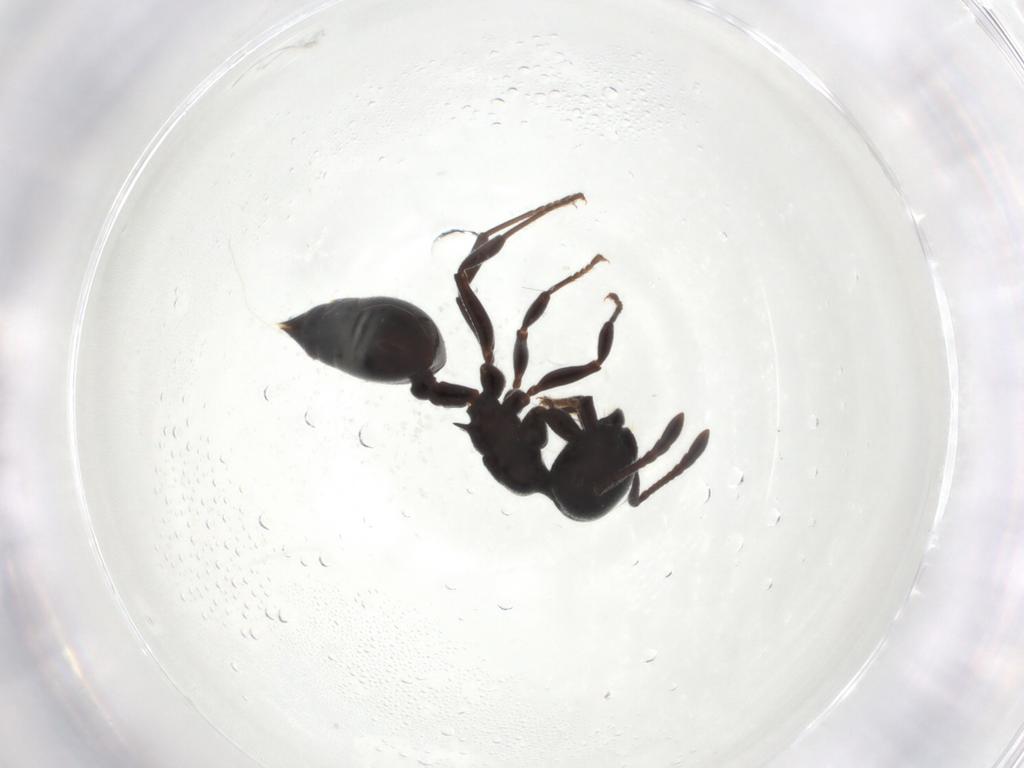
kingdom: Animalia
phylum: Arthropoda
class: Insecta
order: Hymenoptera
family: Formicidae
